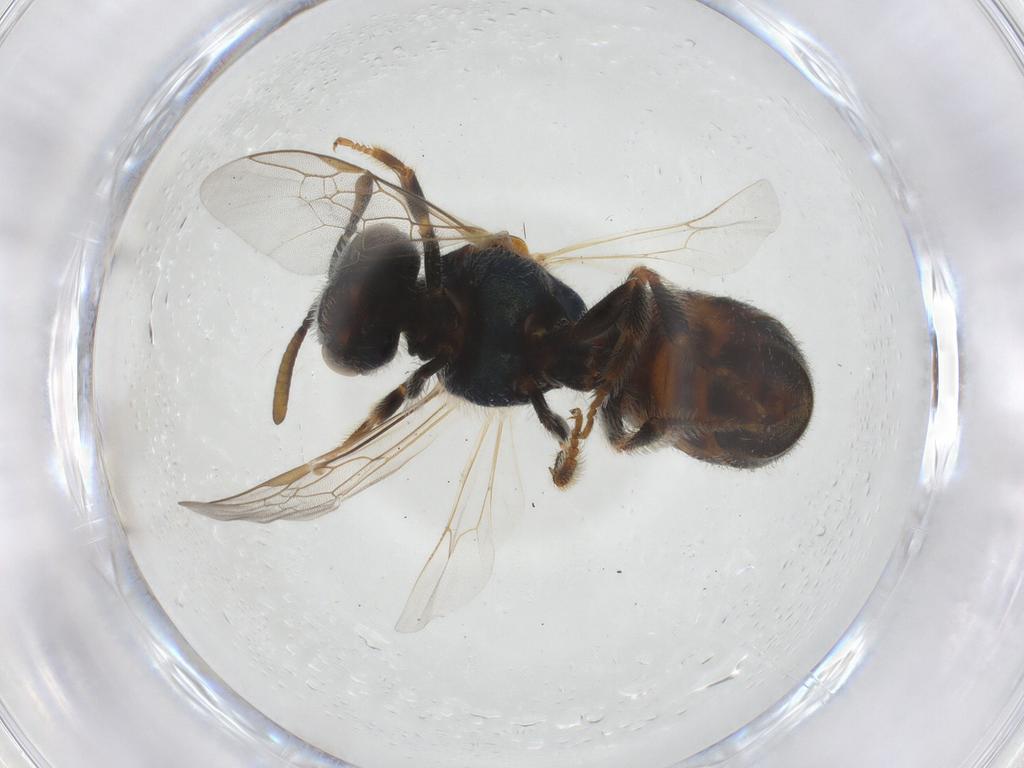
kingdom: Animalia
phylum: Arthropoda
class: Insecta
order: Hymenoptera
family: Halictidae
